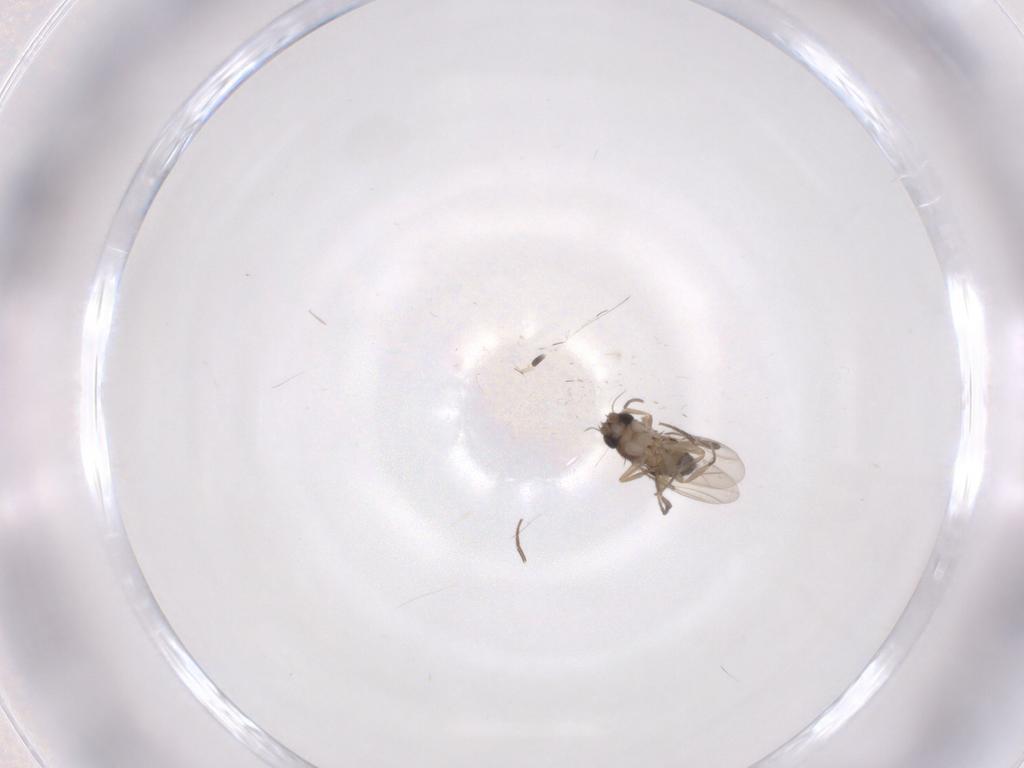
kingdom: Animalia
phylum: Arthropoda
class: Insecta
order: Diptera
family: Phoridae
